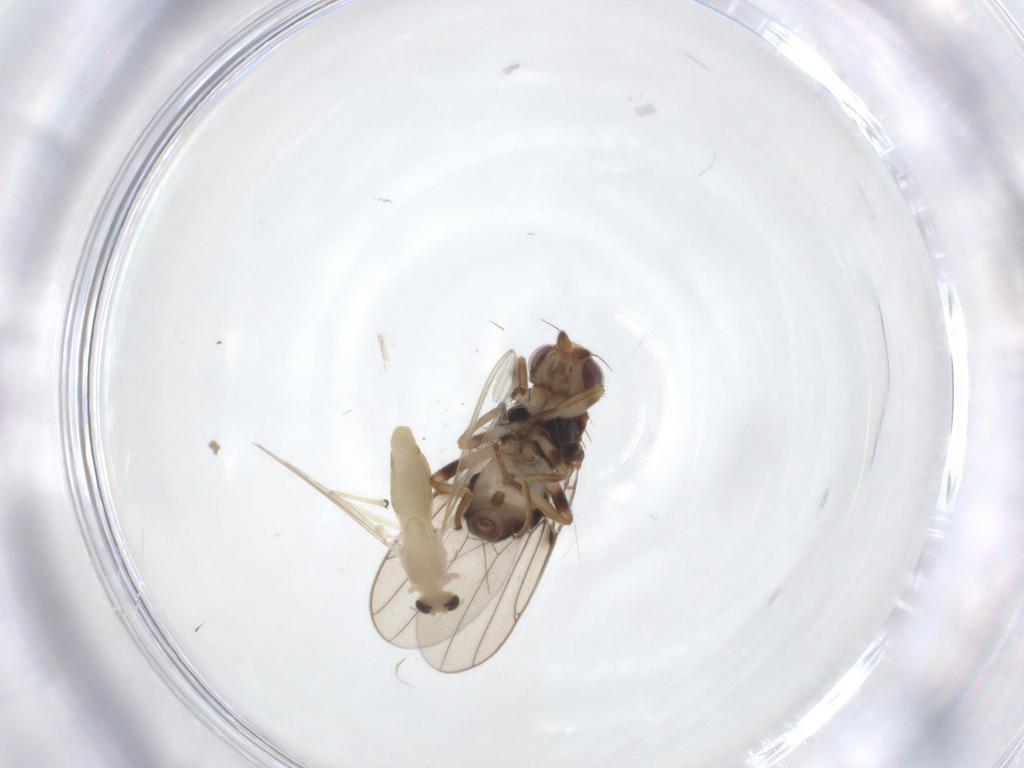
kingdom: Animalia
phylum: Arthropoda
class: Insecta
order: Diptera
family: Chironomidae
